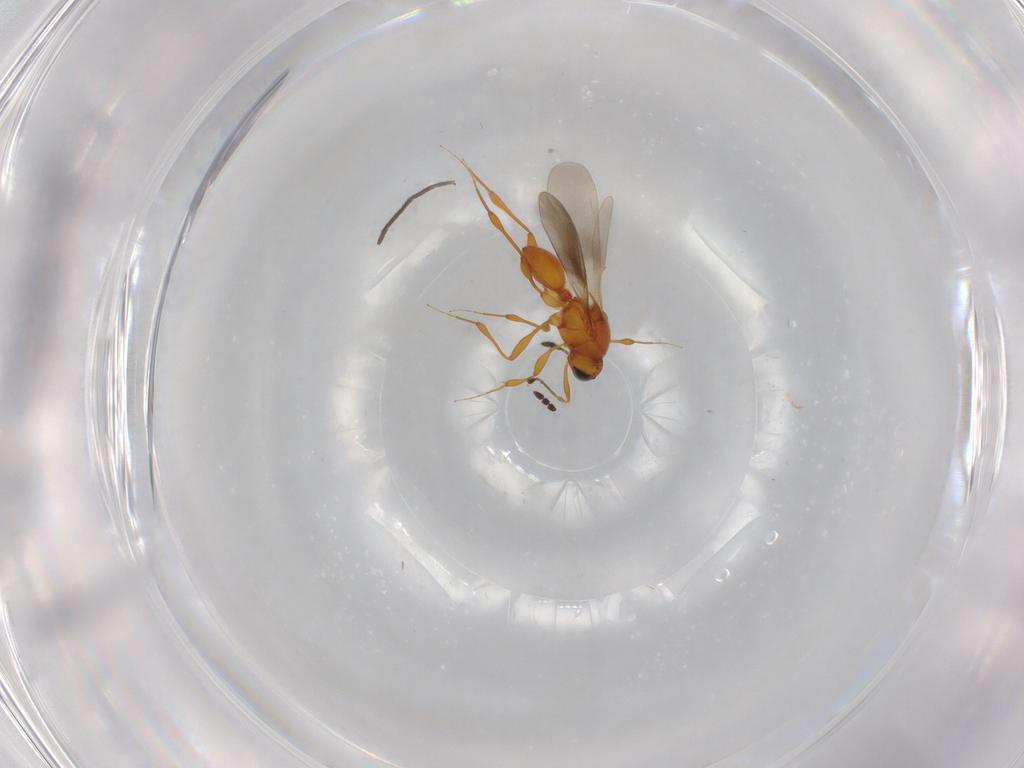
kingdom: Animalia
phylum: Arthropoda
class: Insecta
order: Hymenoptera
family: Platygastridae
